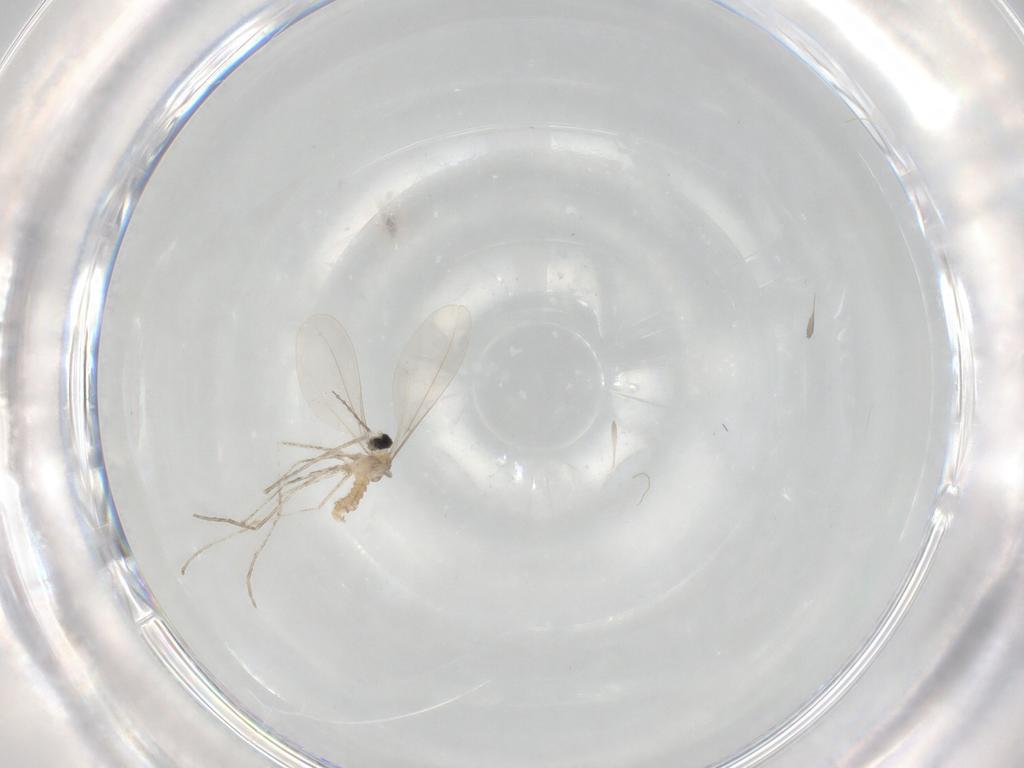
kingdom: Animalia
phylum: Arthropoda
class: Insecta
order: Diptera
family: Cecidomyiidae
